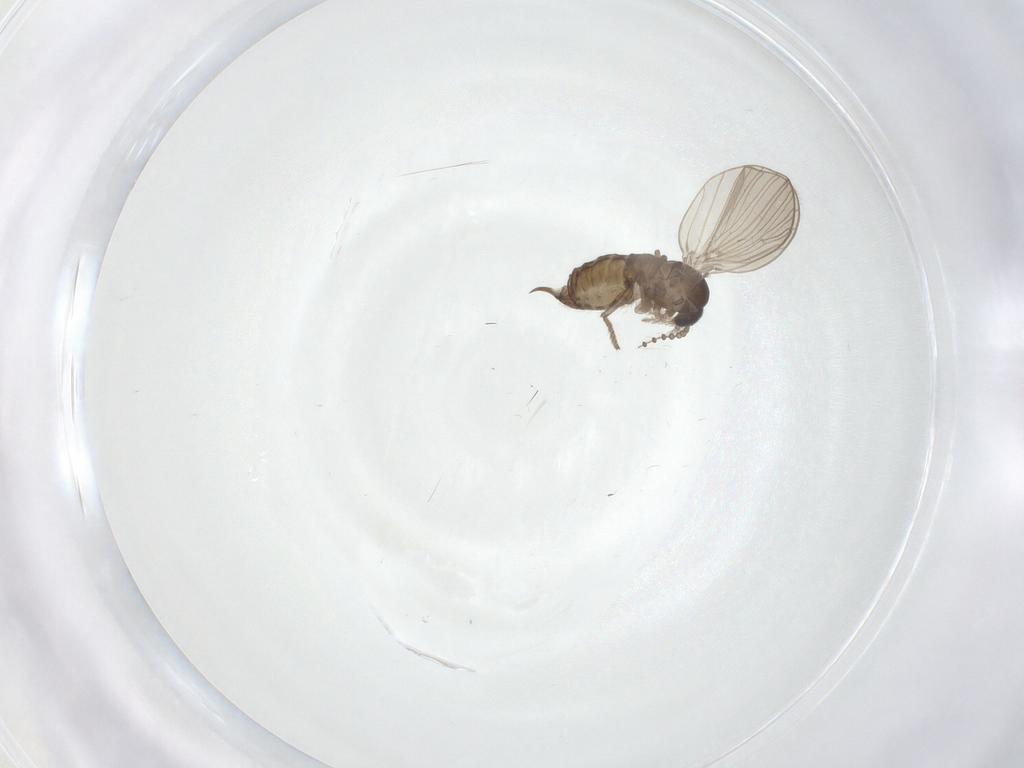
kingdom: Animalia
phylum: Arthropoda
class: Insecta
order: Diptera
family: Psychodidae
